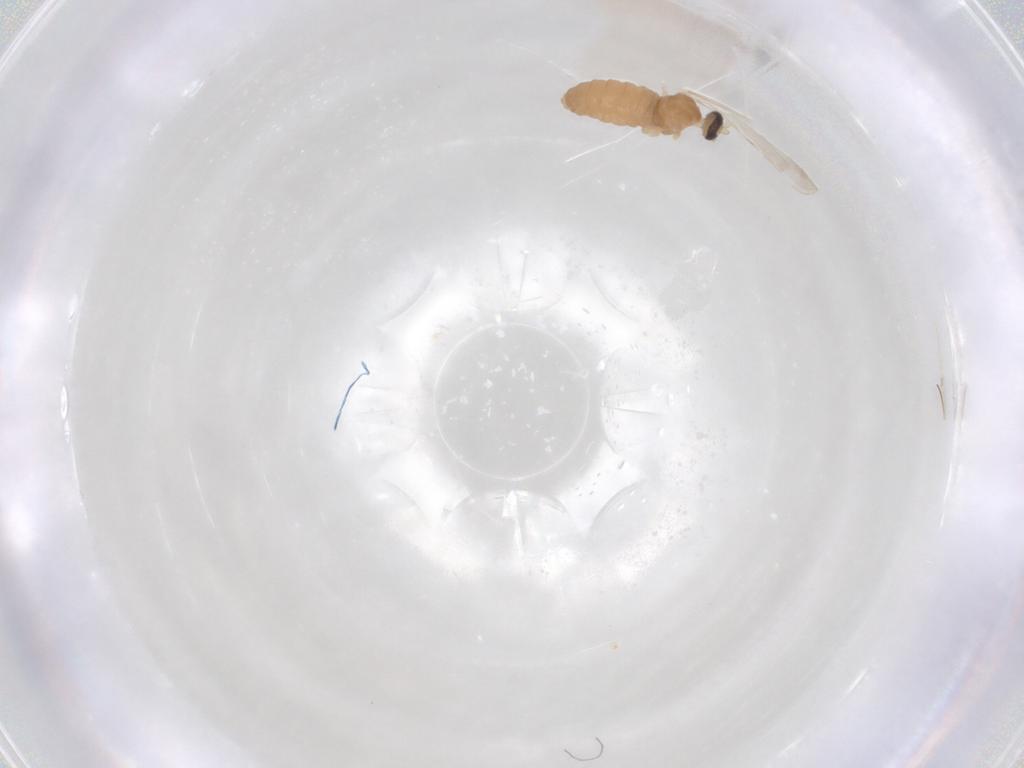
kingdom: Animalia
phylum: Arthropoda
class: Insecta
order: Diptera
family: Cecidomyiidae
